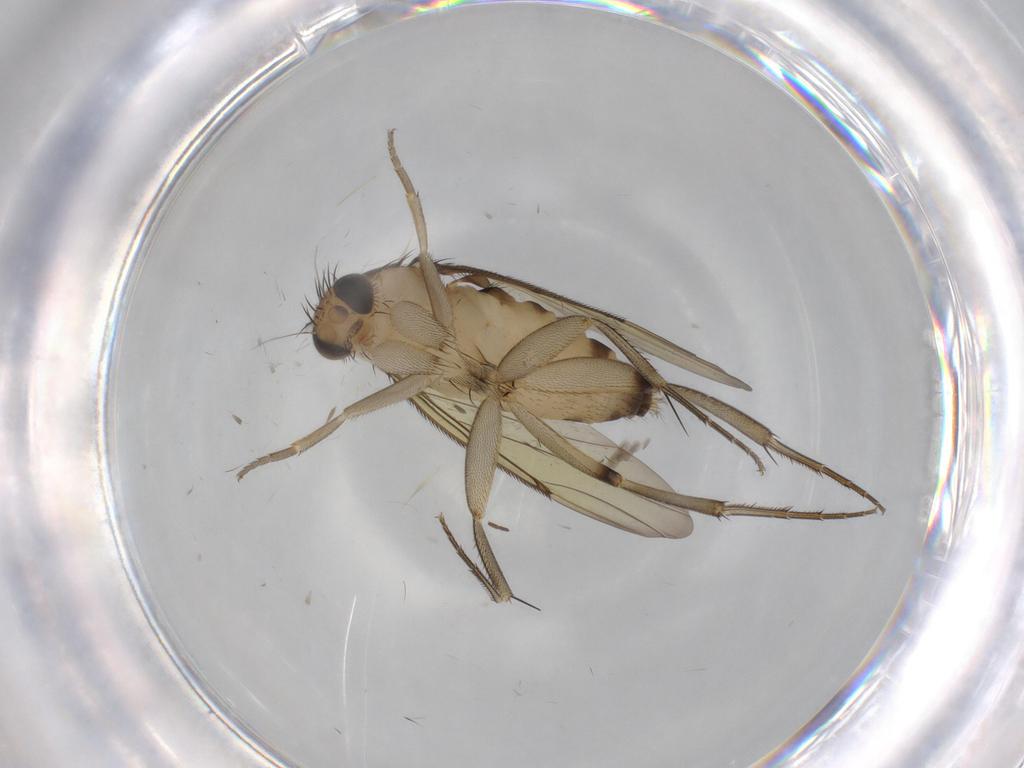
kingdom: Animalia
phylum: Arthropoda
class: Insecta
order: Diptera
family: Phoridae
